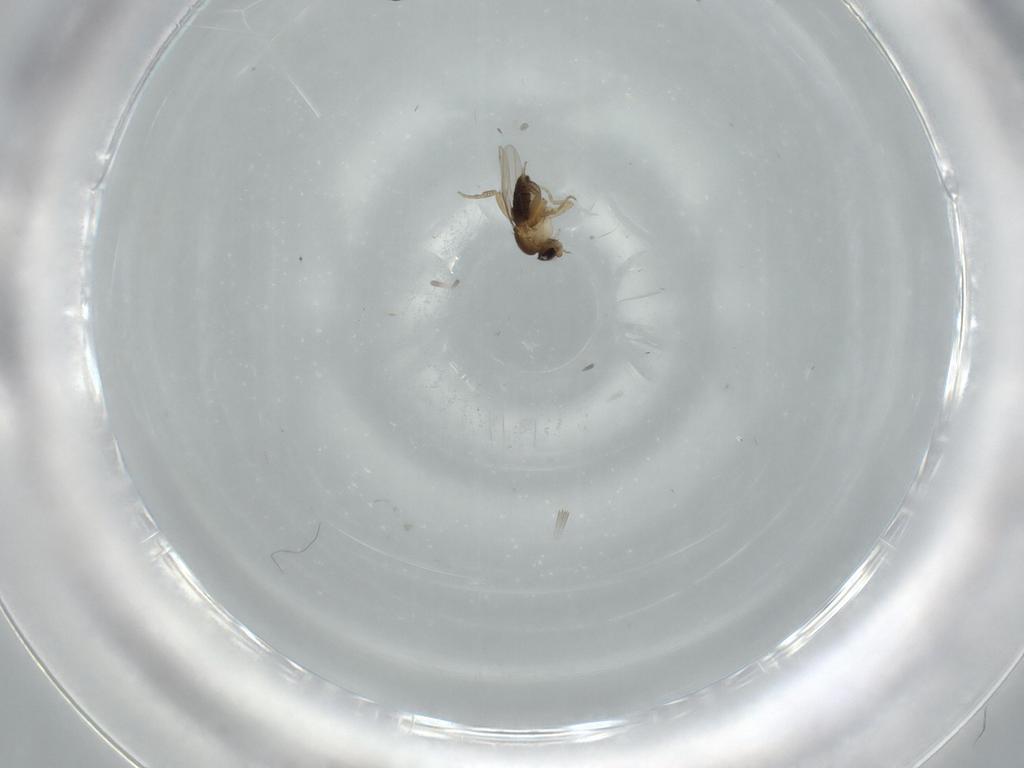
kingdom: Animalia
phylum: Arthropoda
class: Insecta
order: Diptera
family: Phoridae
